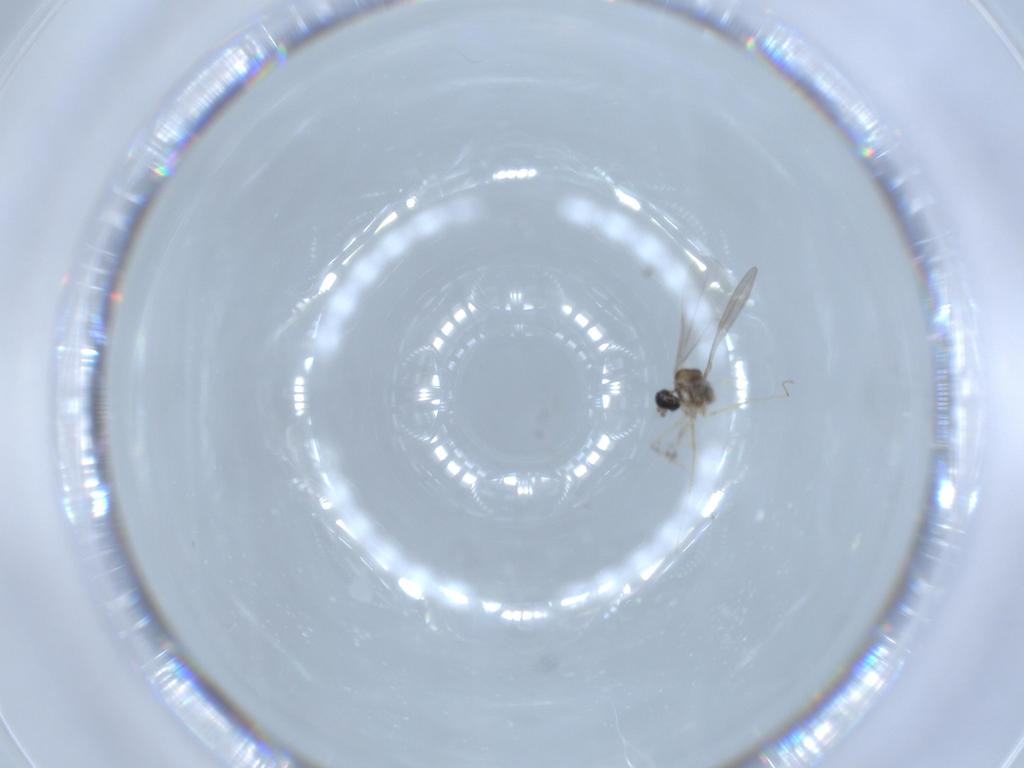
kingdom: Animalia
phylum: Arthropoda
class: Insecta
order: Diptera
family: Cecidomyiidae
